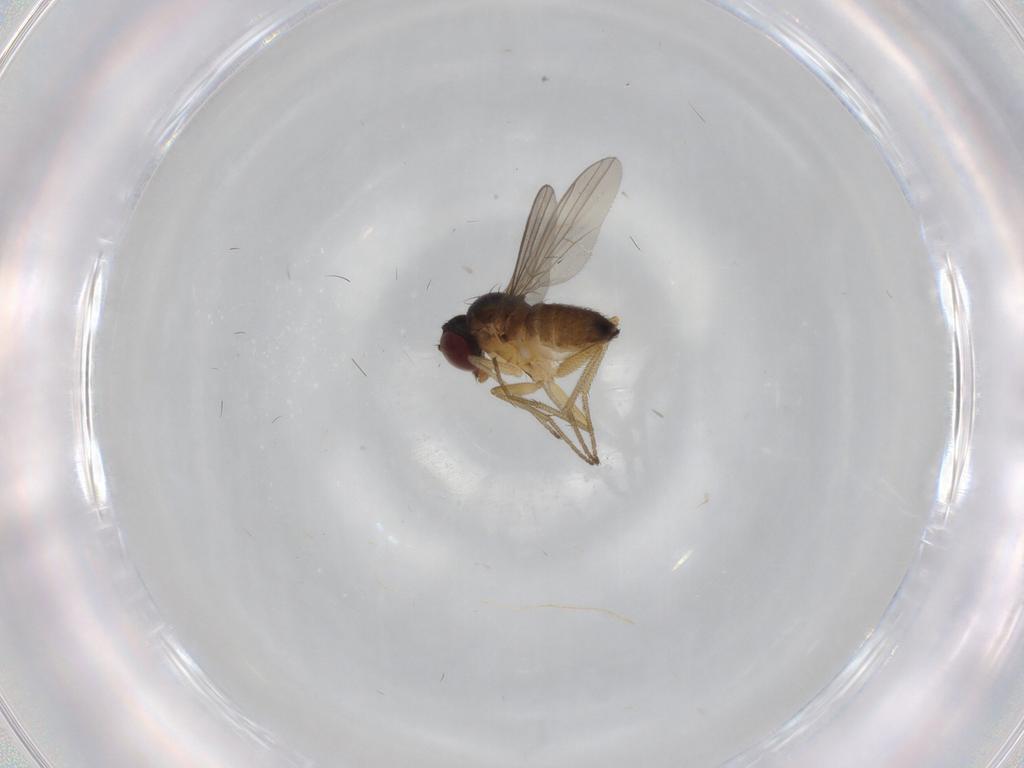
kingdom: Animalia
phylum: Arthropoda
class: Insecta
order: Diptera
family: Dolichopodidae
